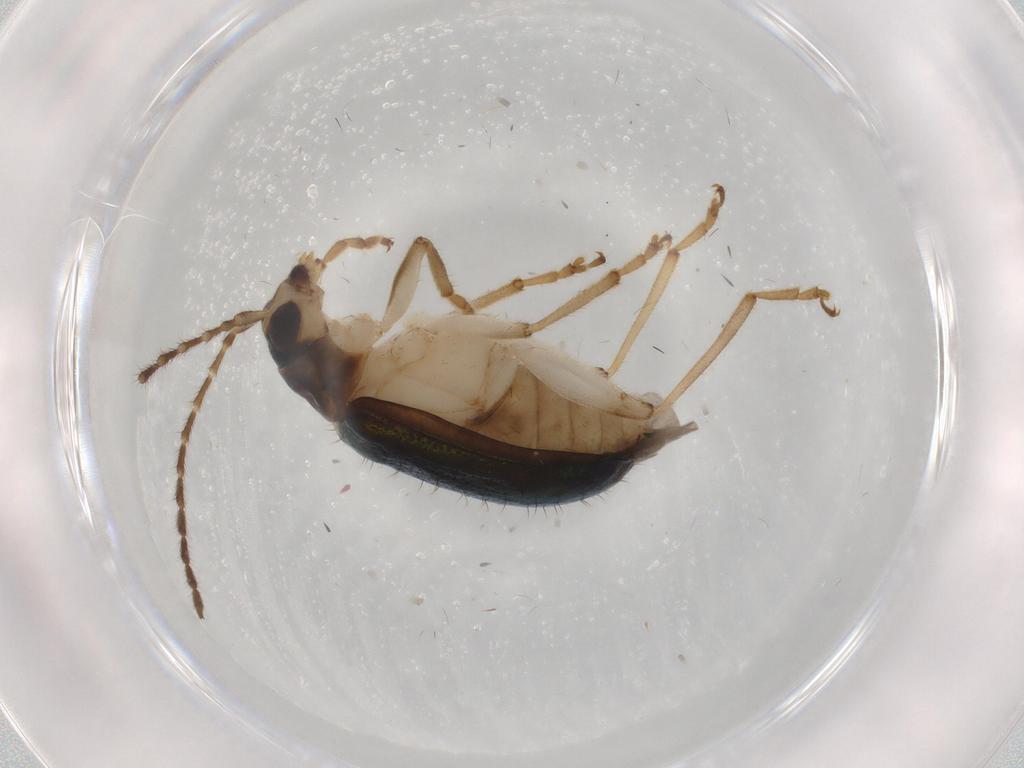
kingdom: Animalia
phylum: Arthropoda
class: Insecta
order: Coleoptera
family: Chrysomelidae
